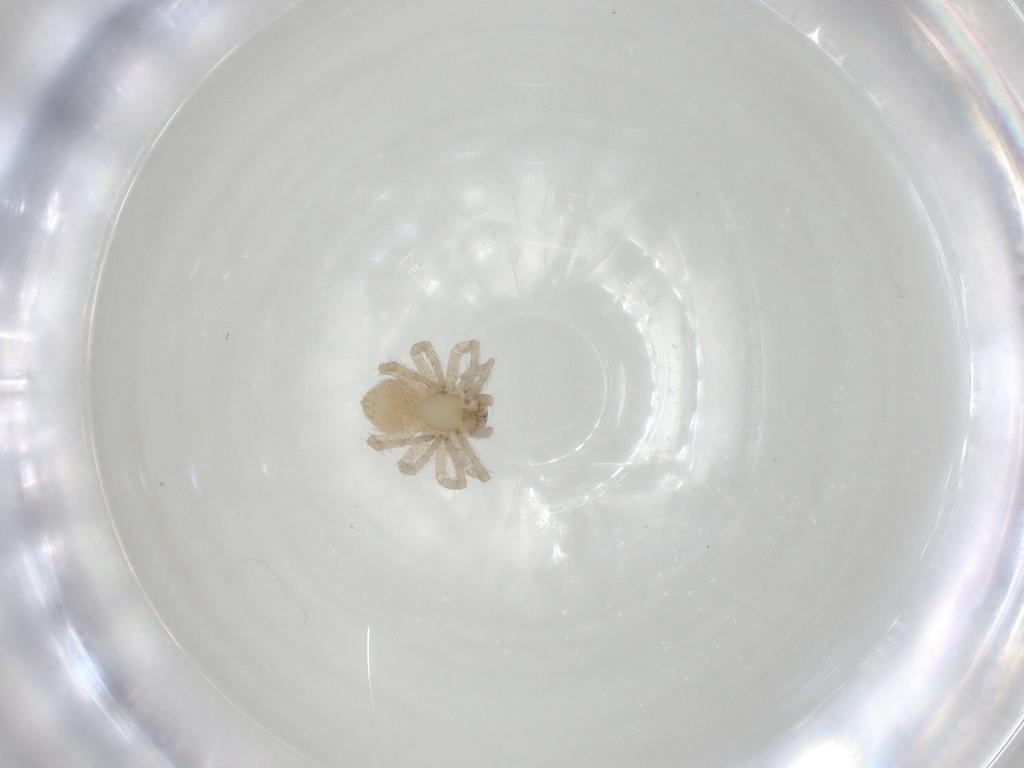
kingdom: Animalia
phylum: Arthropoda
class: Arachnida
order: Araneae
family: Amaurobiidae
